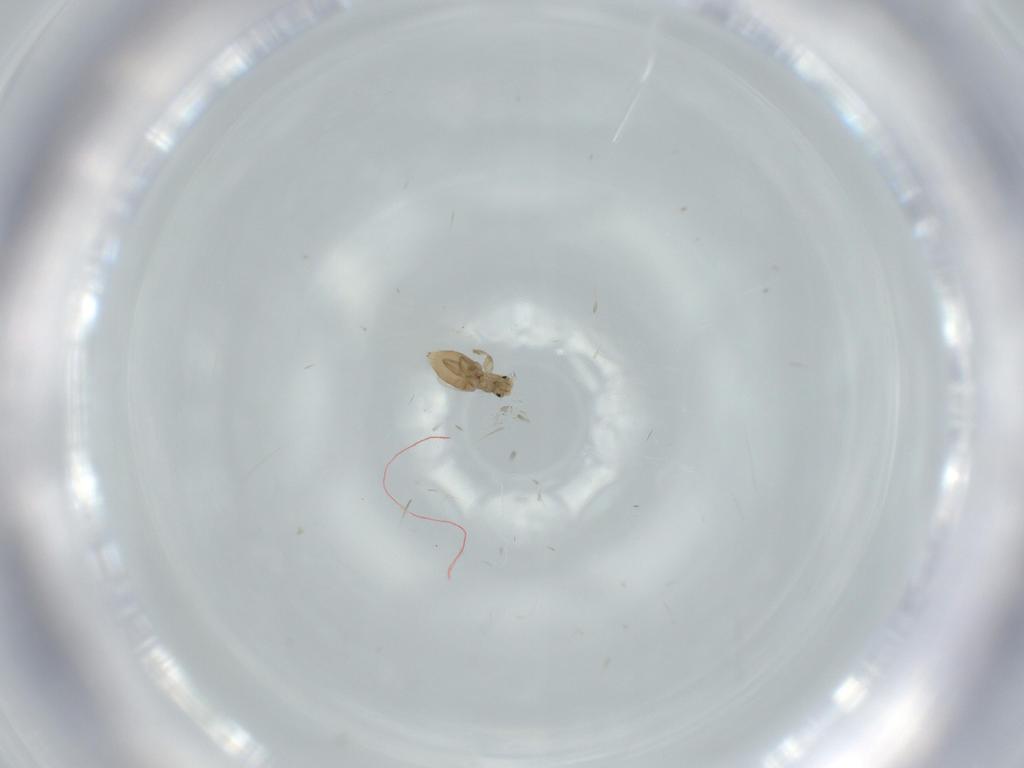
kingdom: Animalia
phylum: Arthropoda
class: Insecta
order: Diptera
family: Phoridae
